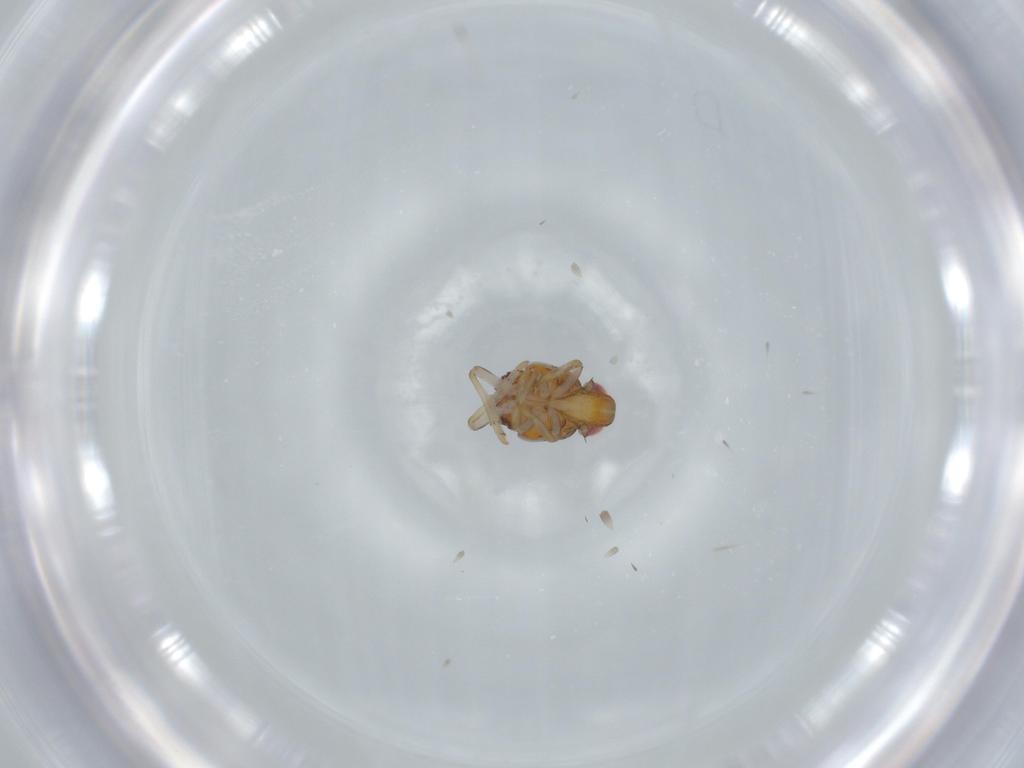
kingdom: Animalia
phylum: Arthropoda
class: Insecta
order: Hemiptera
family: Issidae
